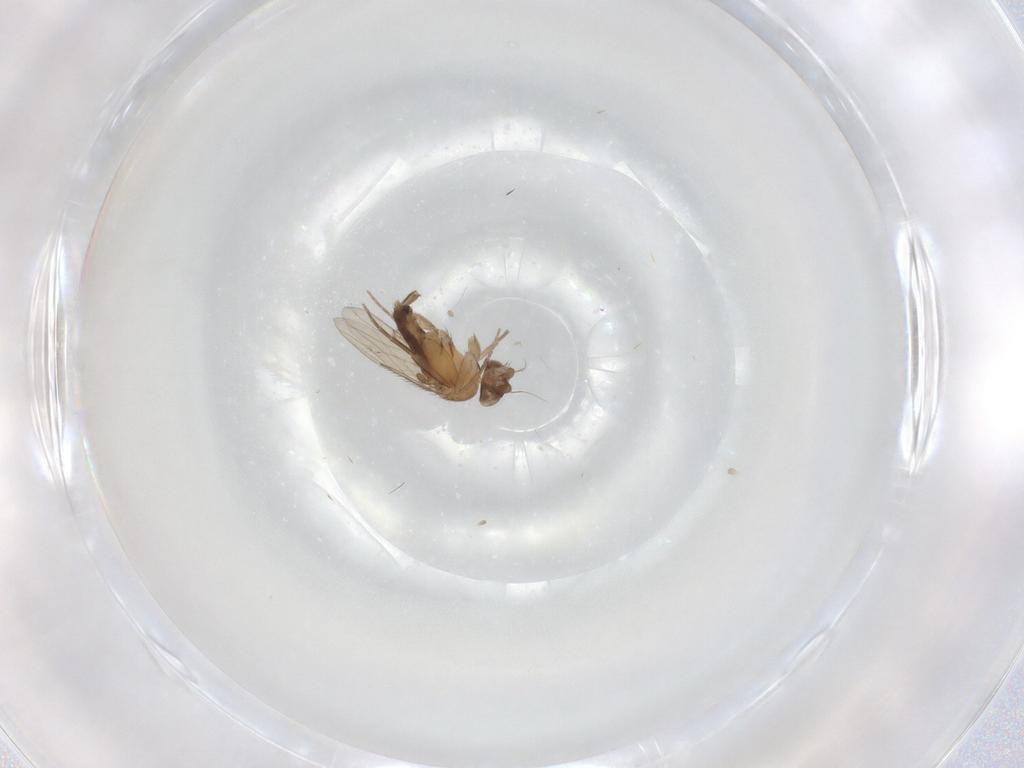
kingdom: Animalia
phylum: Arthropoda
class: Insecta
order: Diptera
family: Phoridae
